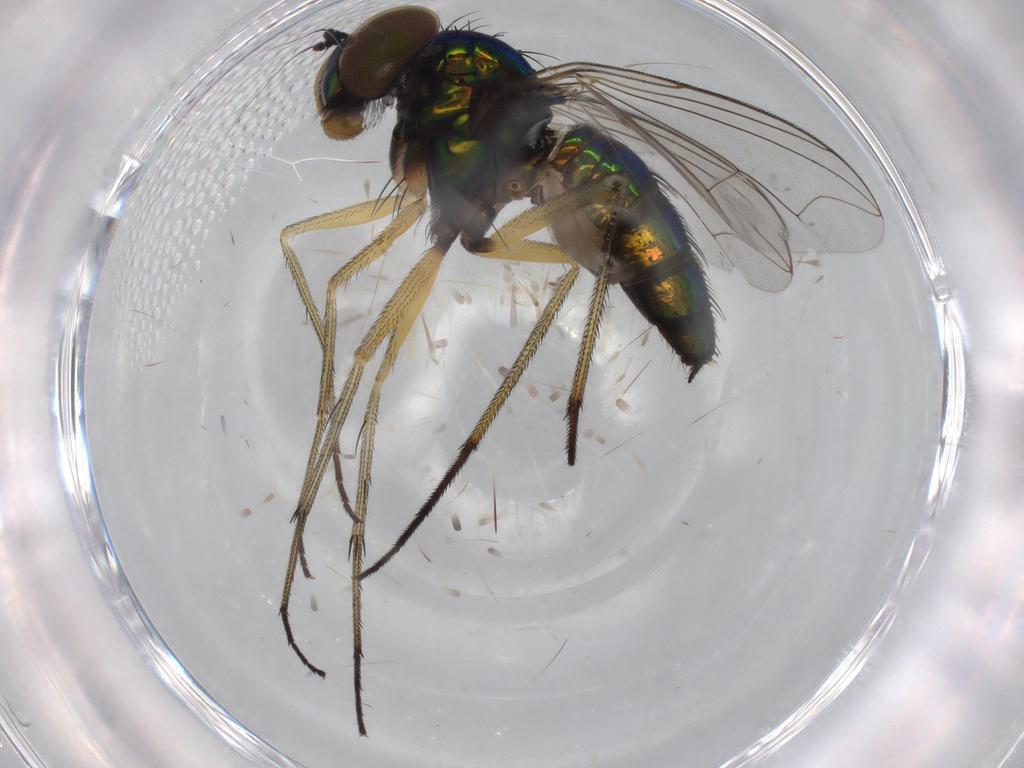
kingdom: Animalia
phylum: Arthropoda
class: Insecta
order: Diptera
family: Dolichopodidae
